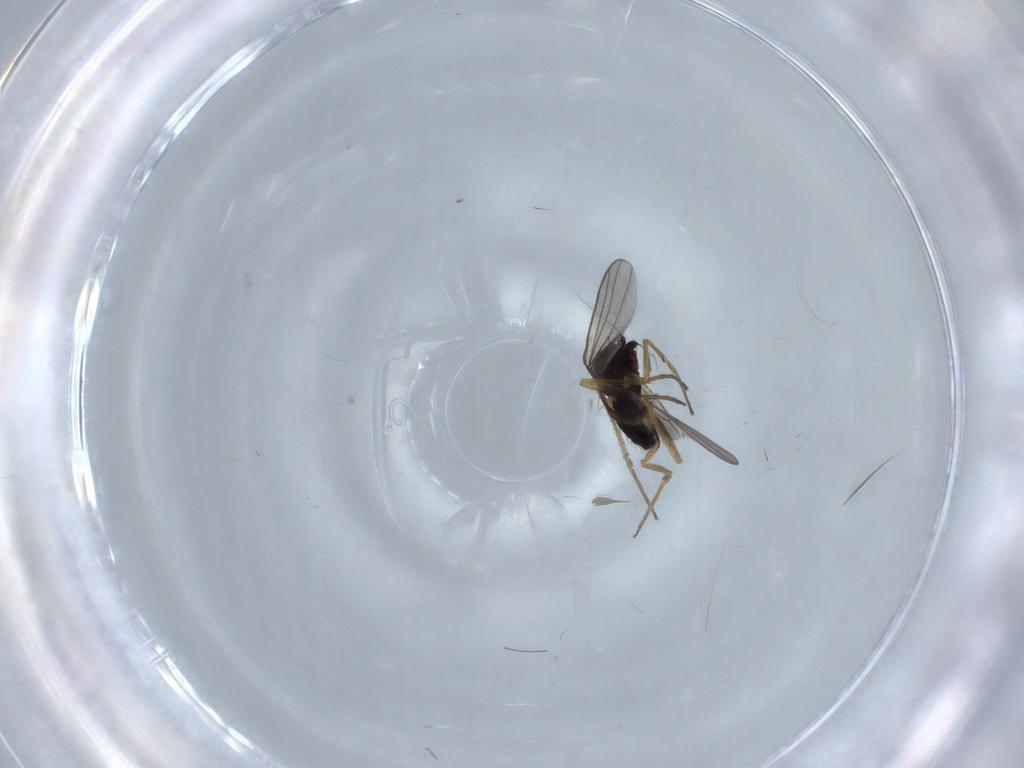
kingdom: Animalia
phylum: Arthropoda
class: Insecta
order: Diptera
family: Dolichopodidae
